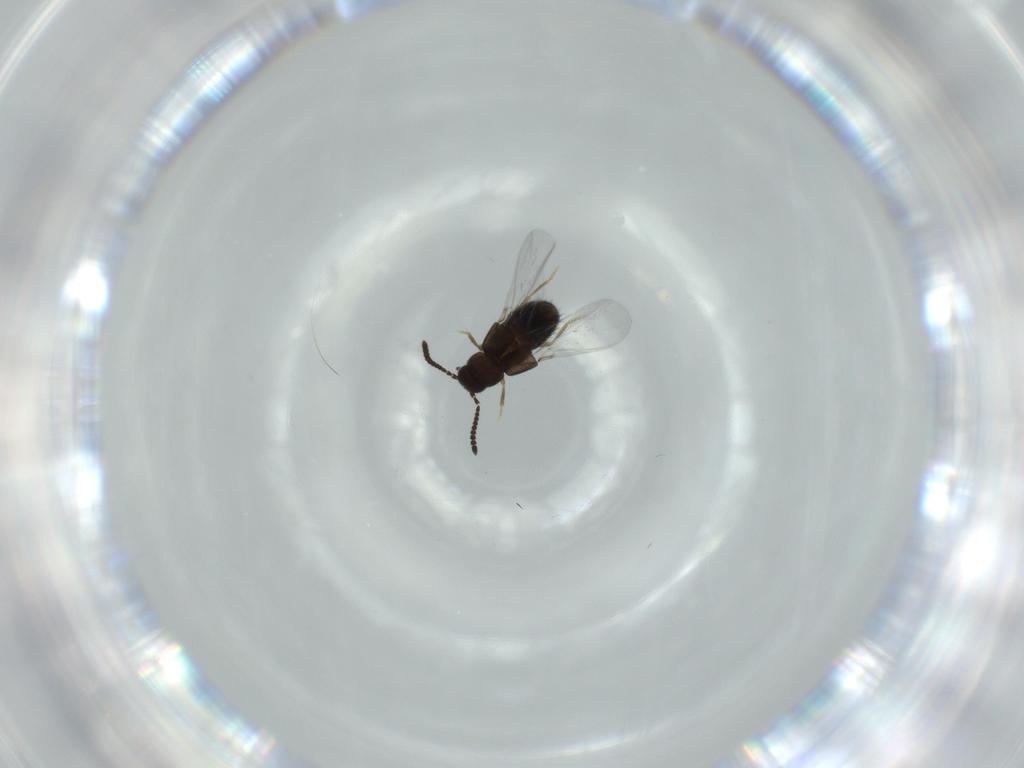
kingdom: Animalia
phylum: Arthropoda
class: Insecta
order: Coleoptera
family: Staphylinidae
